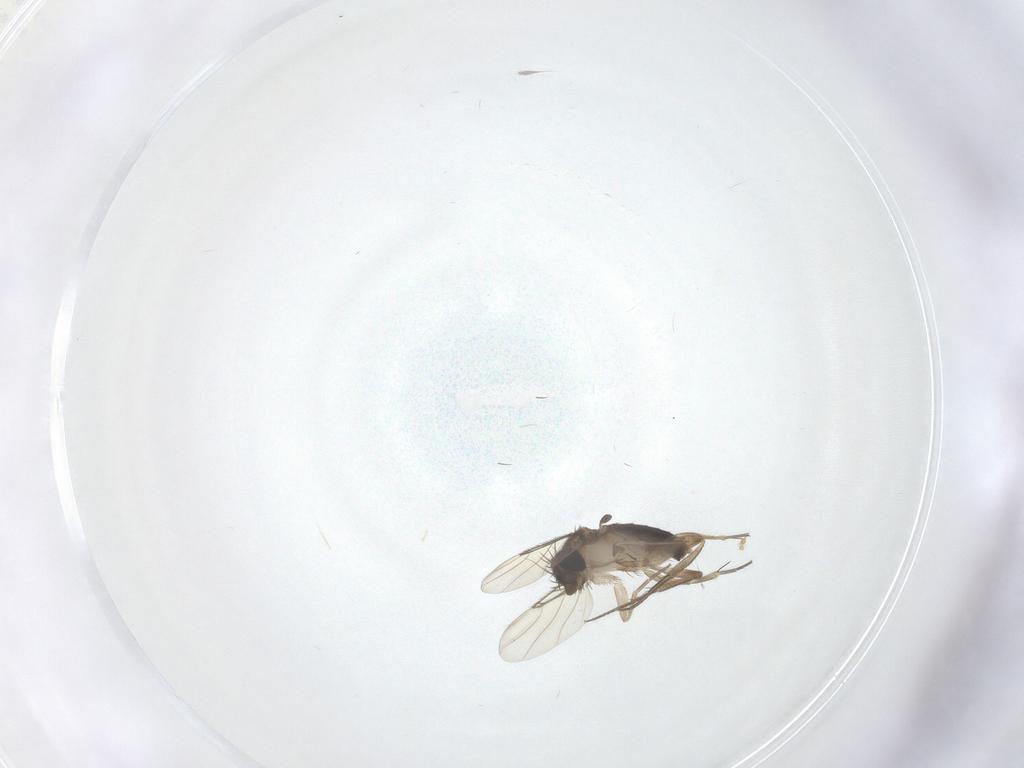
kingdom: Animalia
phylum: Arthropoda
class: Insecta
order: Diptera
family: Phoridae
